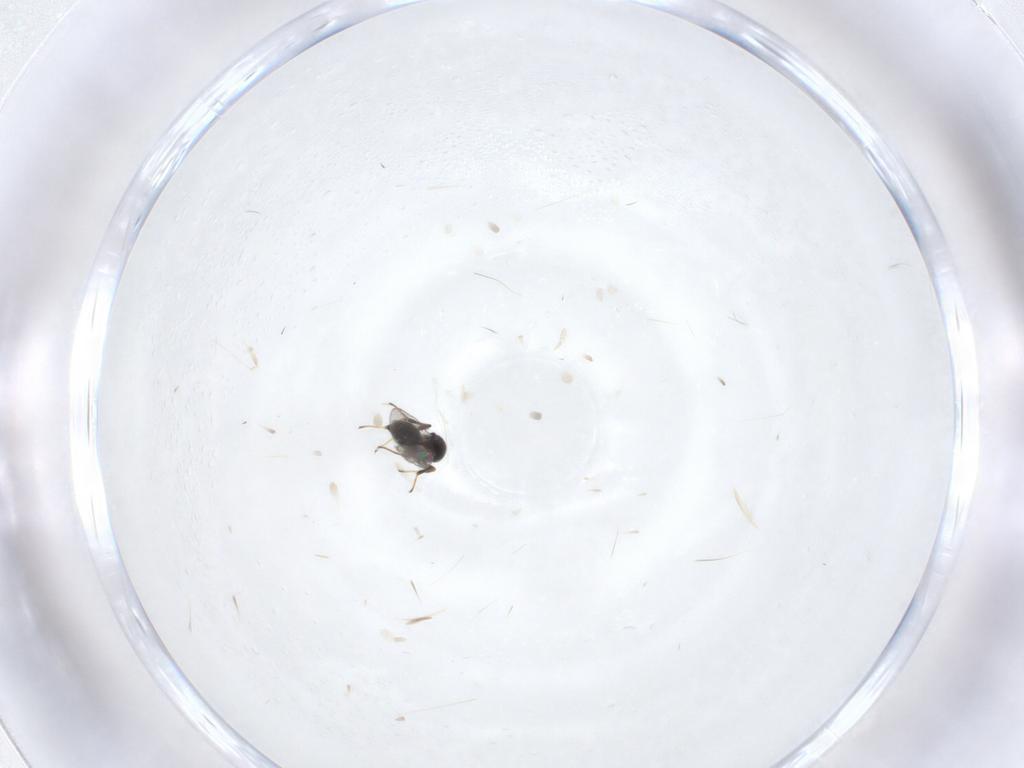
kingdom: Animalia
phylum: Arthropoda
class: Insecta
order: Hymenoptera
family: Platygastridae
